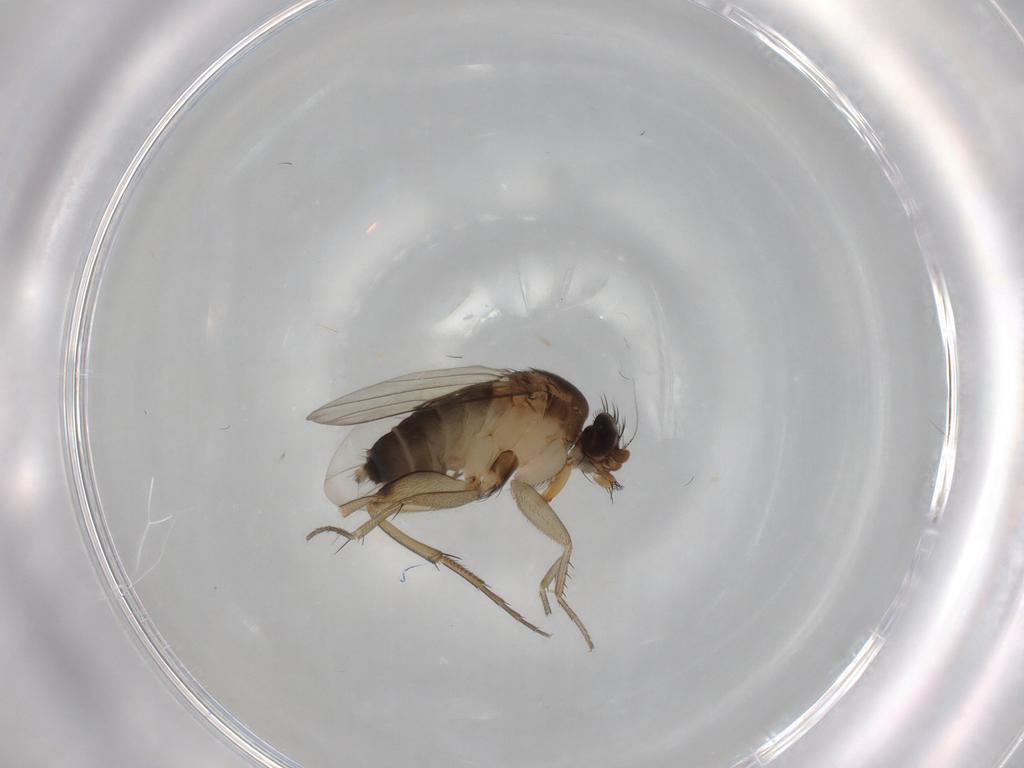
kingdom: Animalia
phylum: Arthropoda
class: Insecta
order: Diptera
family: Phoridae
